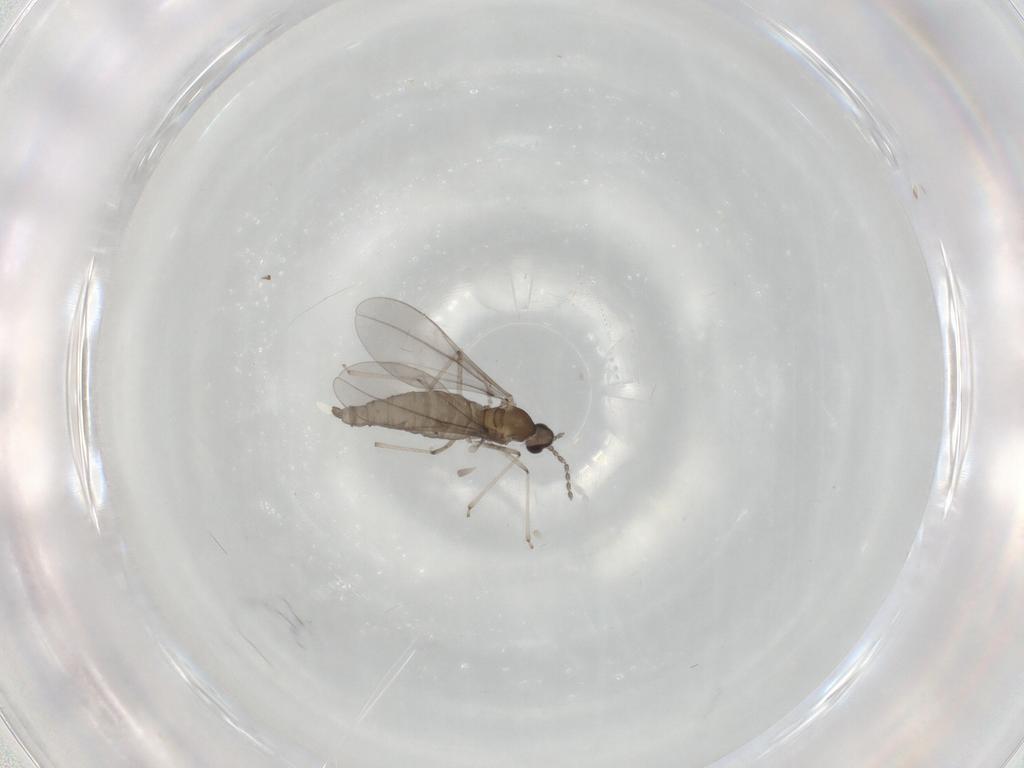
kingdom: Animalia
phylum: Arthropoda
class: Insecta
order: Diptera
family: Cecidomyiidae
